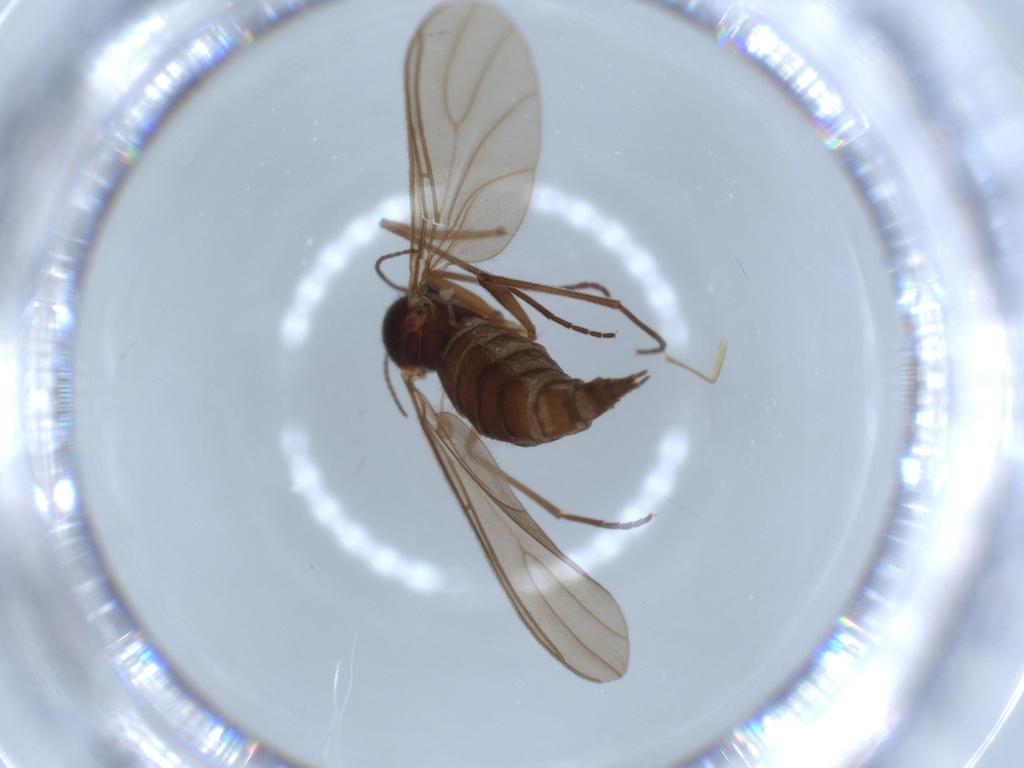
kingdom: Animalia
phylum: Arthropoda
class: Insecta
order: Diptera
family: Sciaridae
